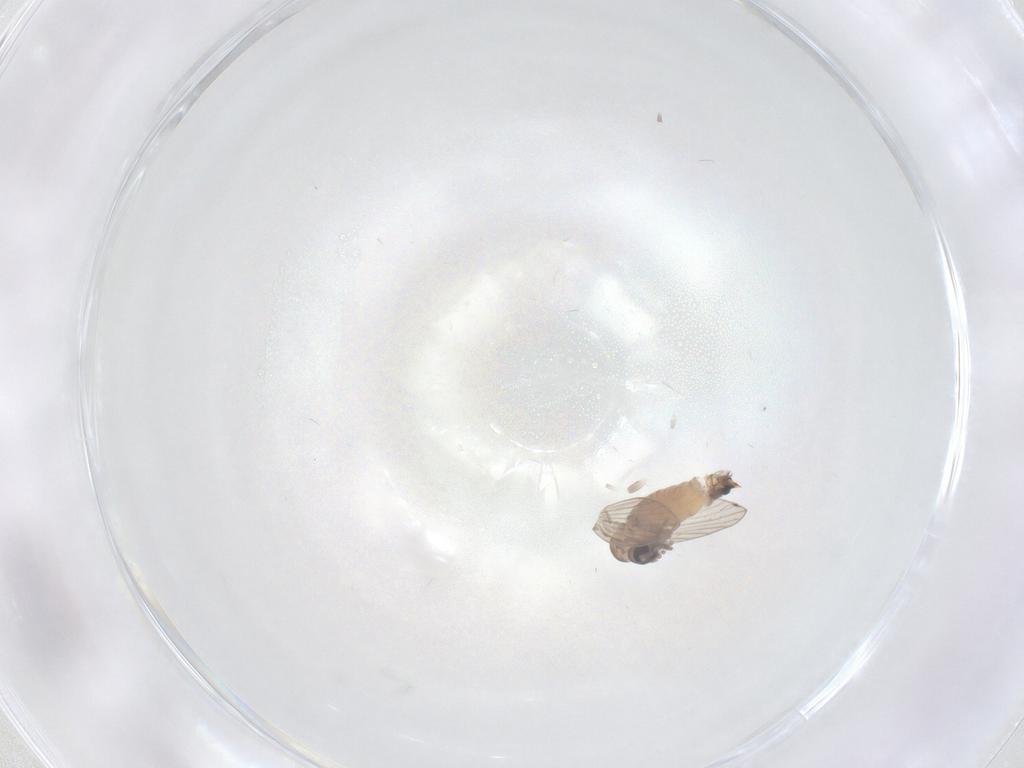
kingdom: Animalia
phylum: Arthropoda
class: Insecta
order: Diptera
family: Psychodidae
